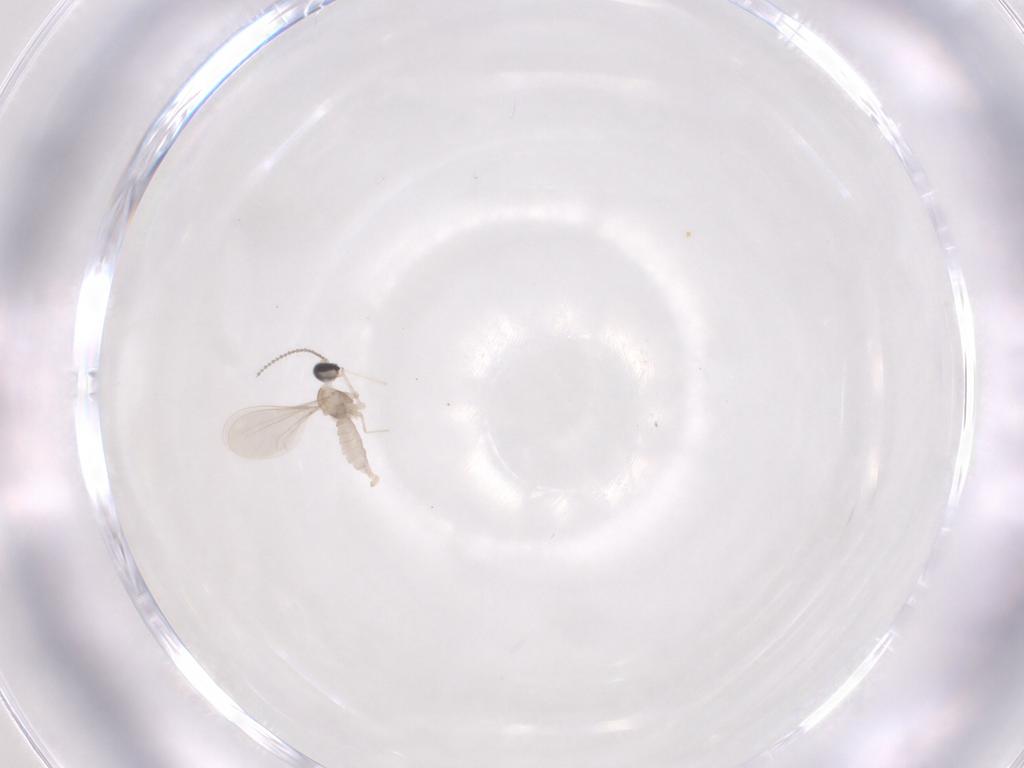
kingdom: Animalia
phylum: Arthropoda
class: Insecta
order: Diptera
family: Cecidomyiidae
